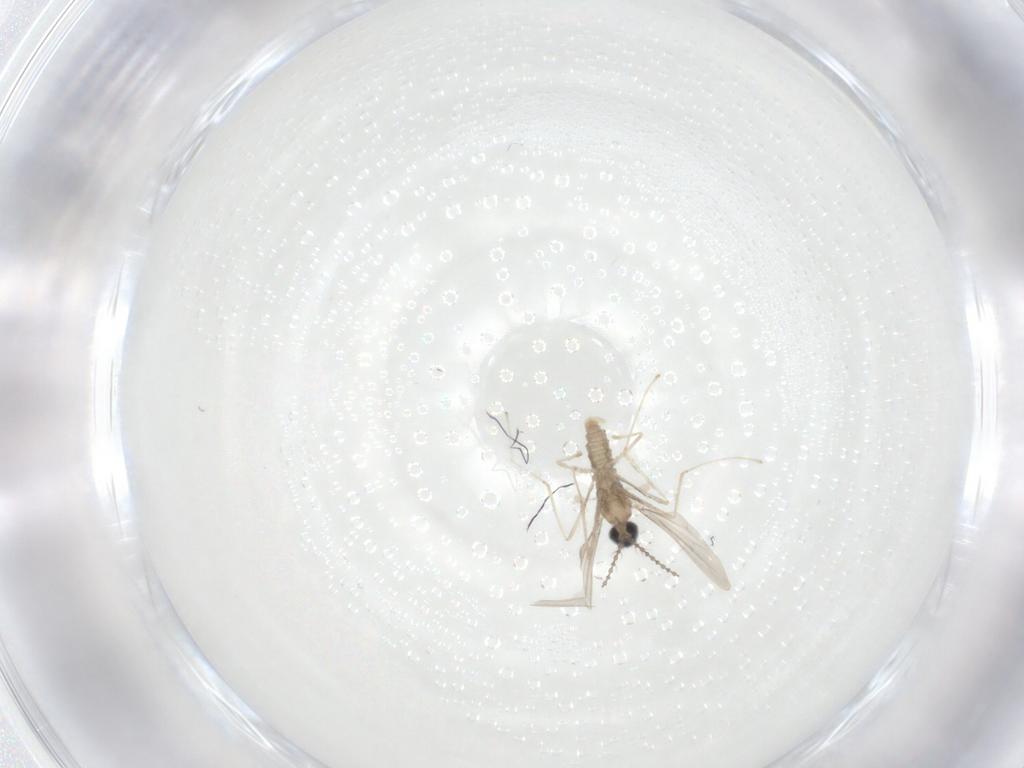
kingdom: Animalia
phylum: Arthropoda
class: Insecta
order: Diptera
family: Cecidomyiidae
